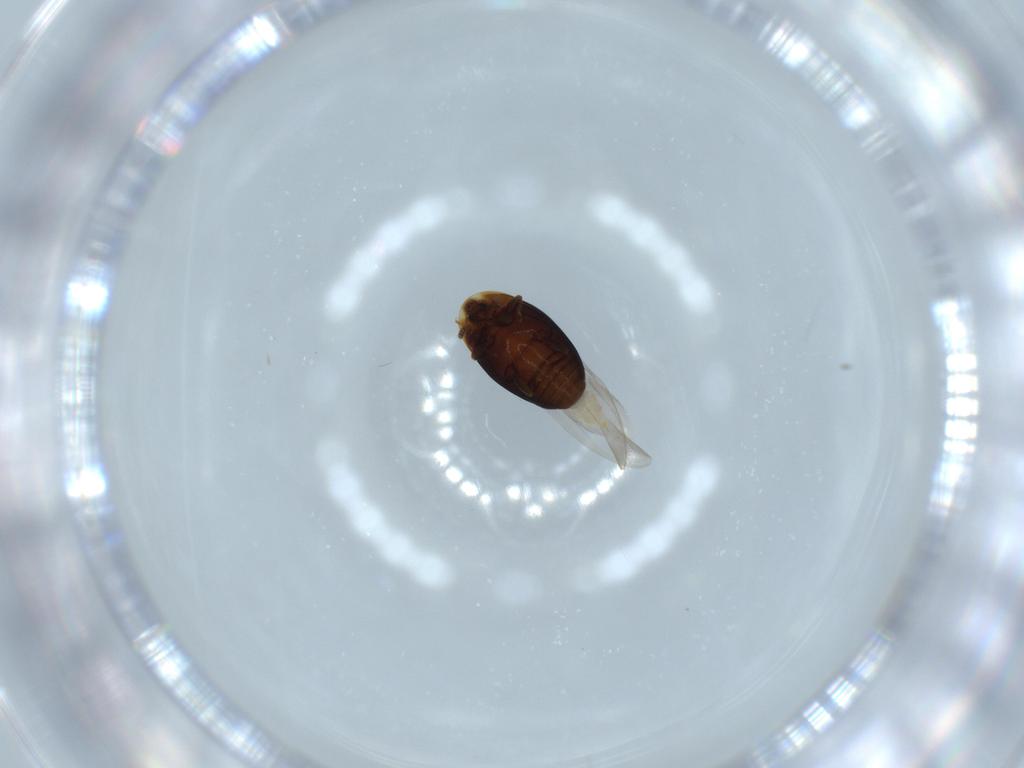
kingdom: Animalia
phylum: Arthropoda
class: Insecta
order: Coleoptera
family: Corylophidae
